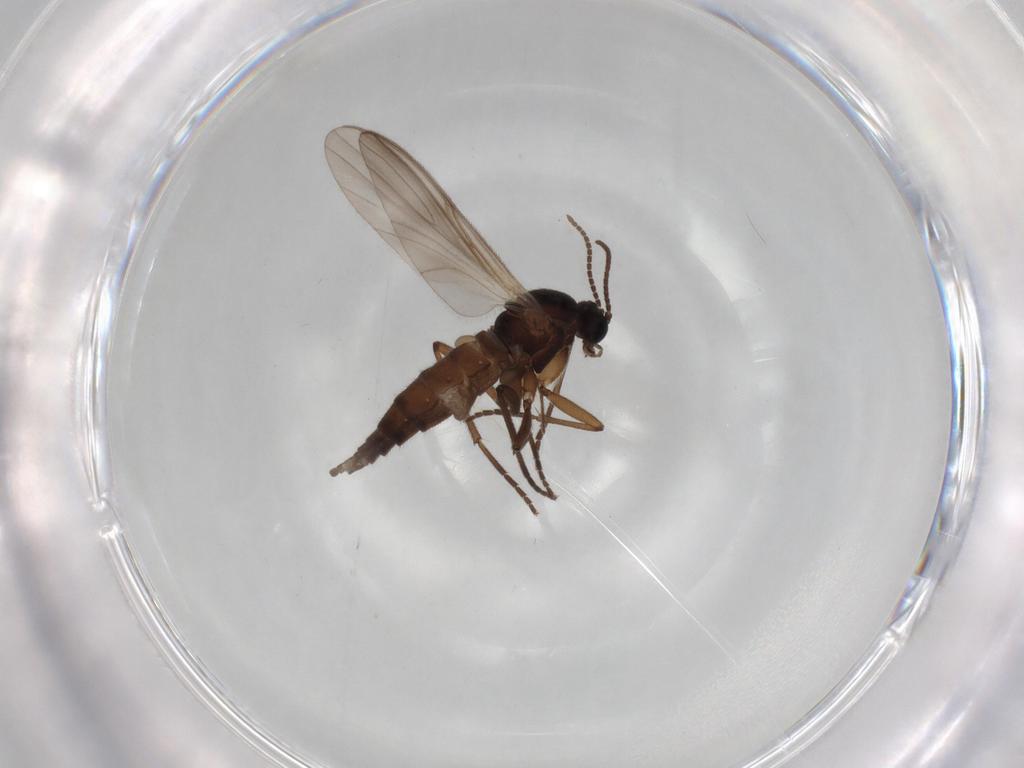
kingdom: Animalia
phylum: Arthropoda
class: Insecta
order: Diptera
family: Sciaridae
